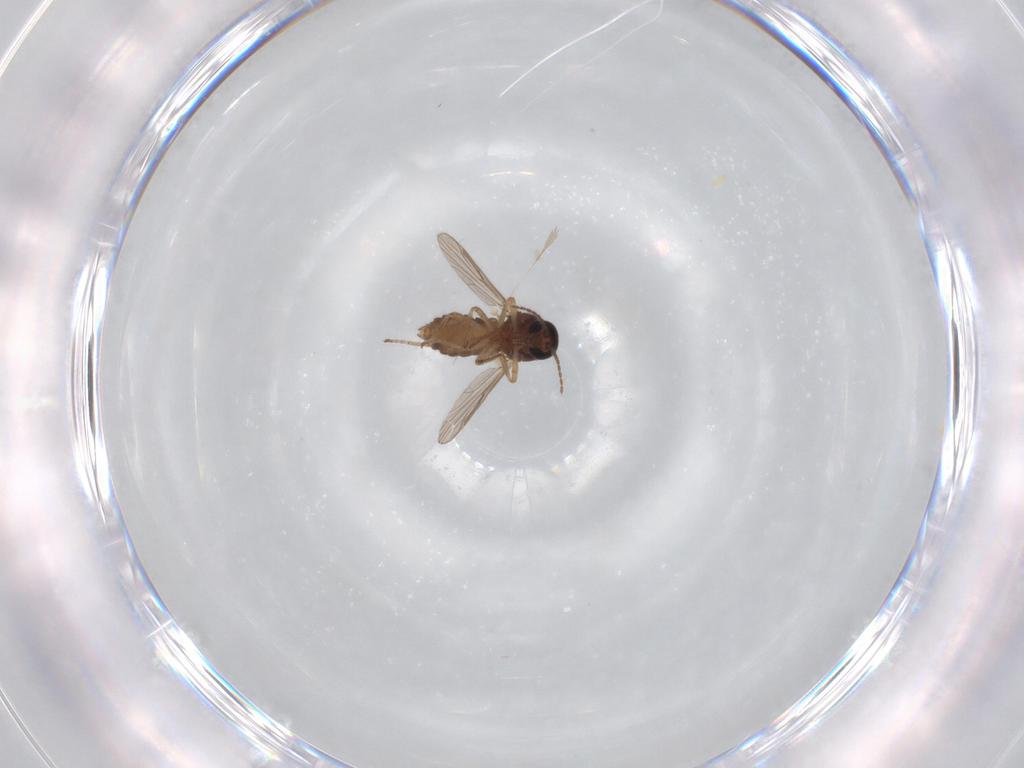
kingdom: Animalia
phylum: Arthropoda
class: Insecta
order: Diptera
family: Ceratopogonidae
